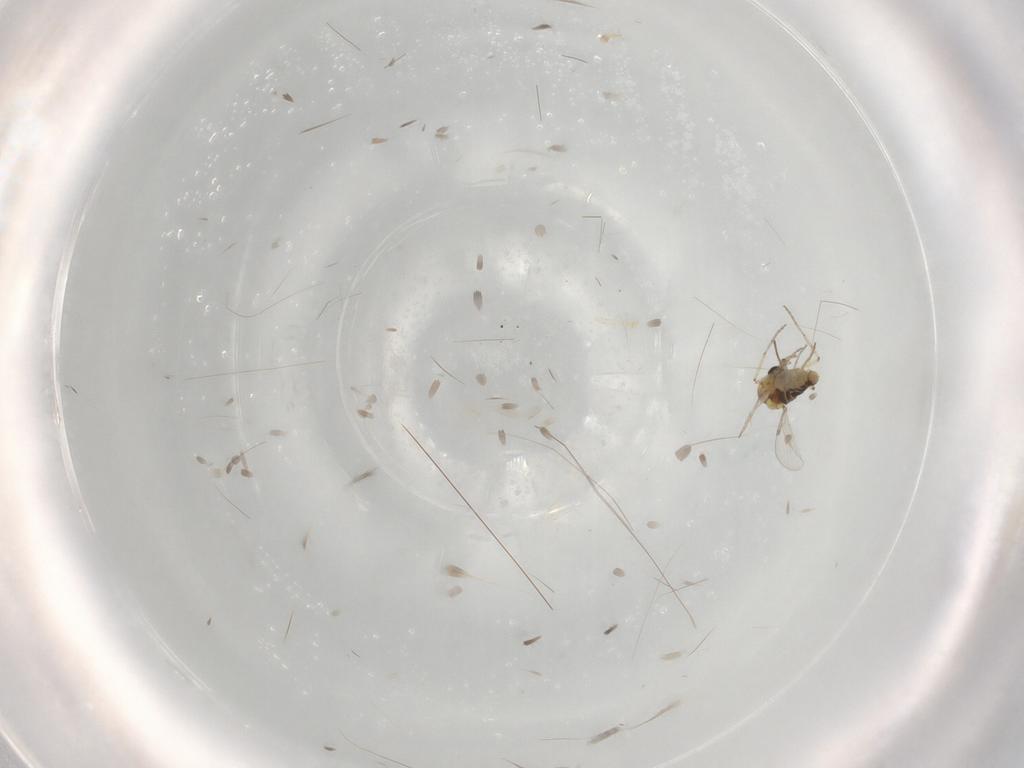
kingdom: Animalia
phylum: Arthropoda
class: Insecta
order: Diptera
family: Ceratopogonidae
